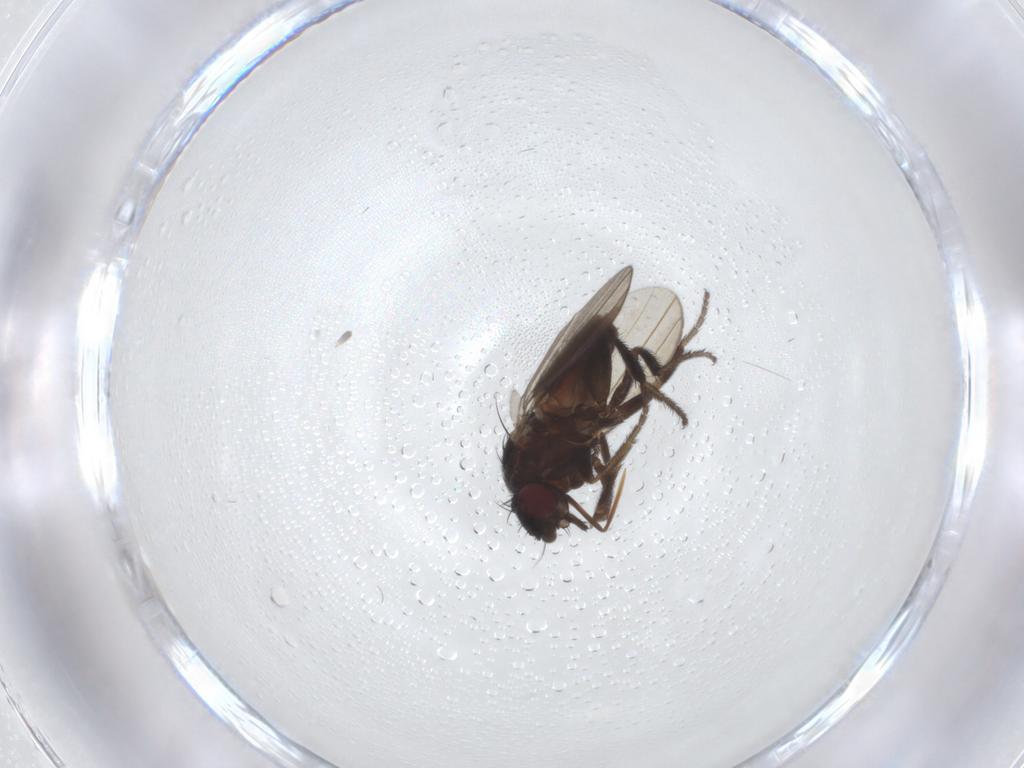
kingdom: Animalia
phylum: Arthropoda
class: Insecta
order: Diptera
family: Milichiidae
